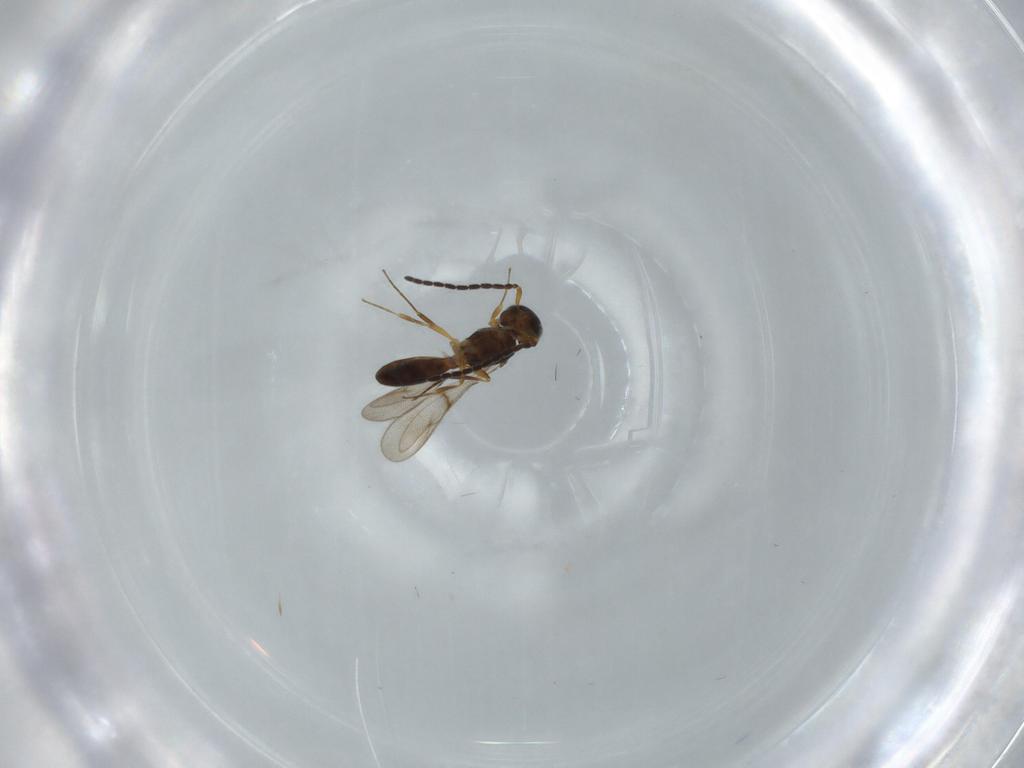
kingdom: Animalia
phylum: Arthropoda
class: Insecta
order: Hymenoptera
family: Scelionidae
